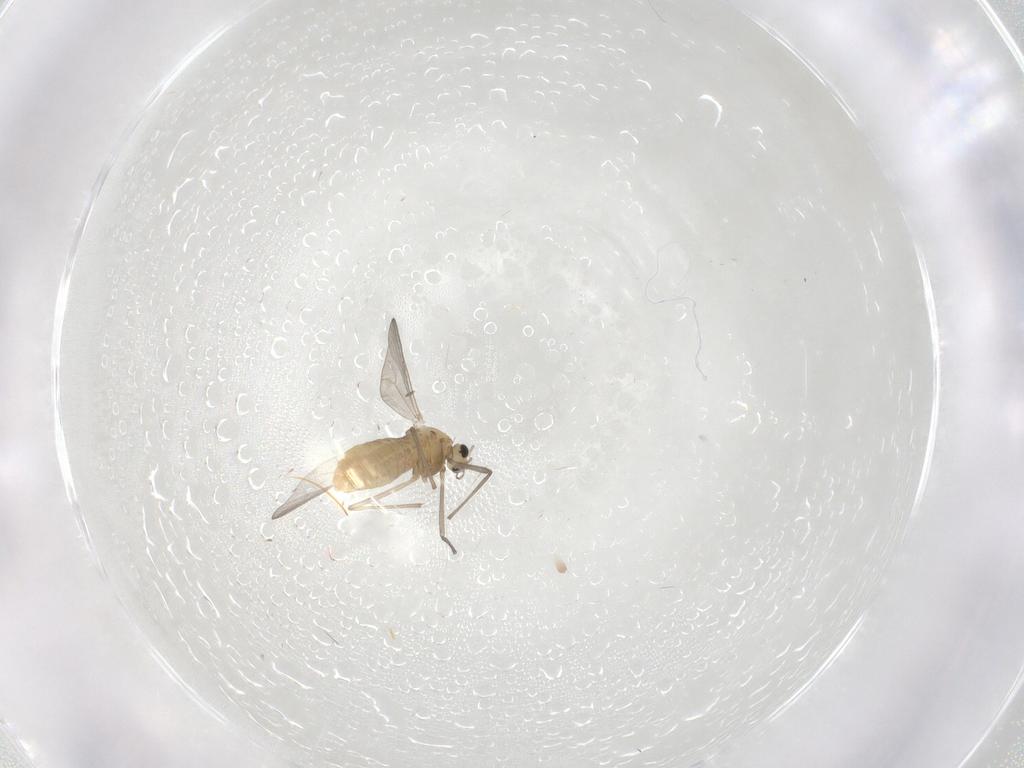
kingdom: Animalia
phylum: Arthropoda
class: Insecta
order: Diptera
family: Chironomidae
